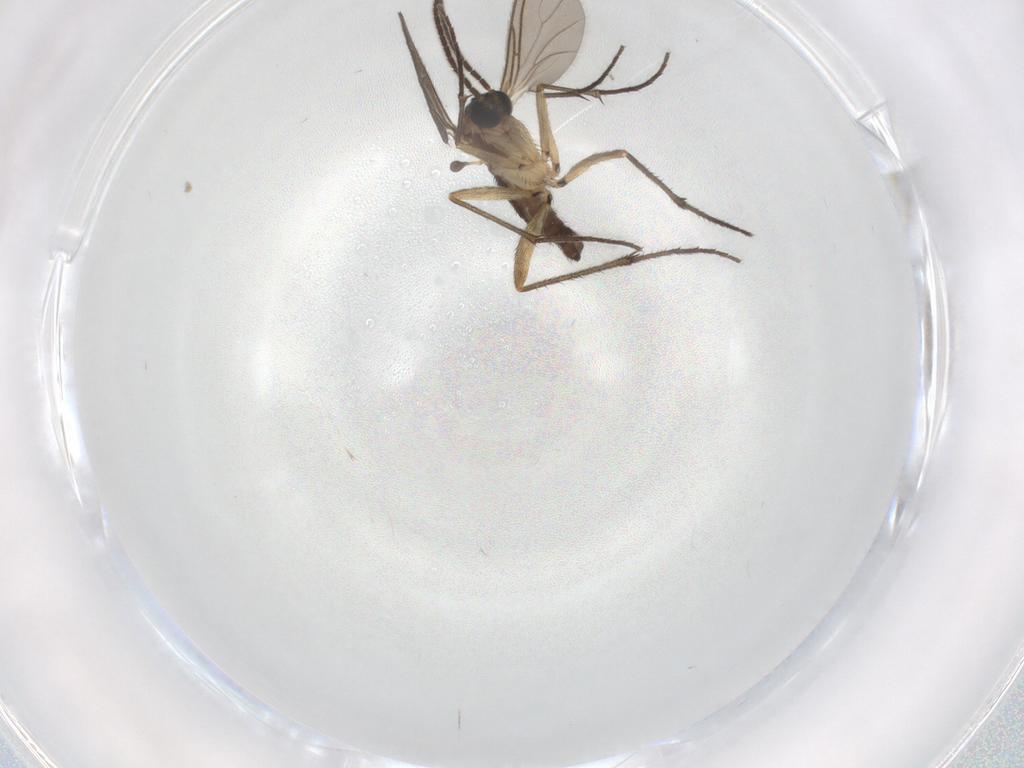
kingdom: Animalia
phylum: Arthropoda
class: Insecta
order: Diptera
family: Sciaridae
